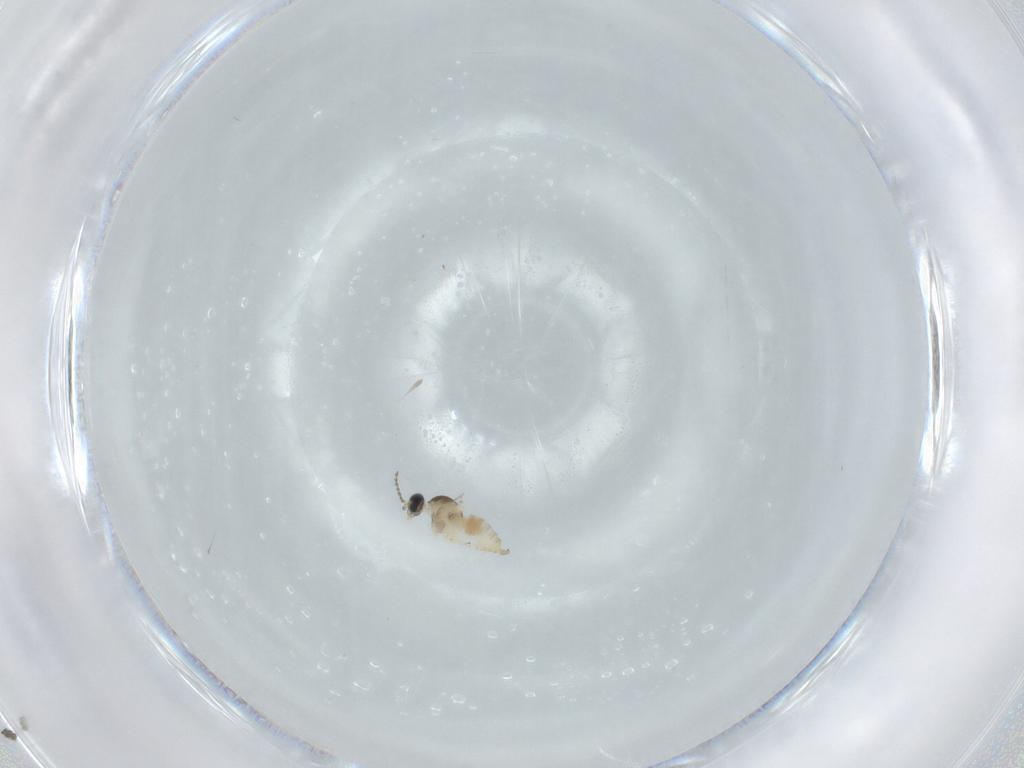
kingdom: Animalia
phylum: Arthropoda
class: Insecta
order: Diptera
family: Cecidomyiidae
